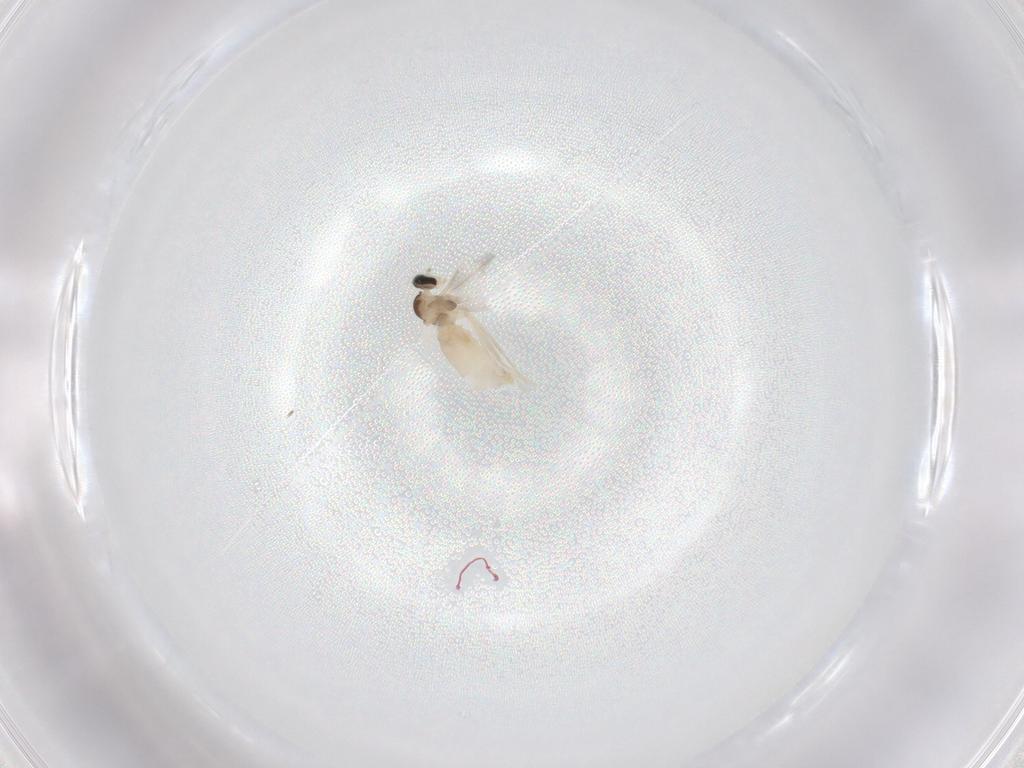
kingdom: Animalia
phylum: Arthropoda
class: Insecta
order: Diptera
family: Cecidomyiidae
